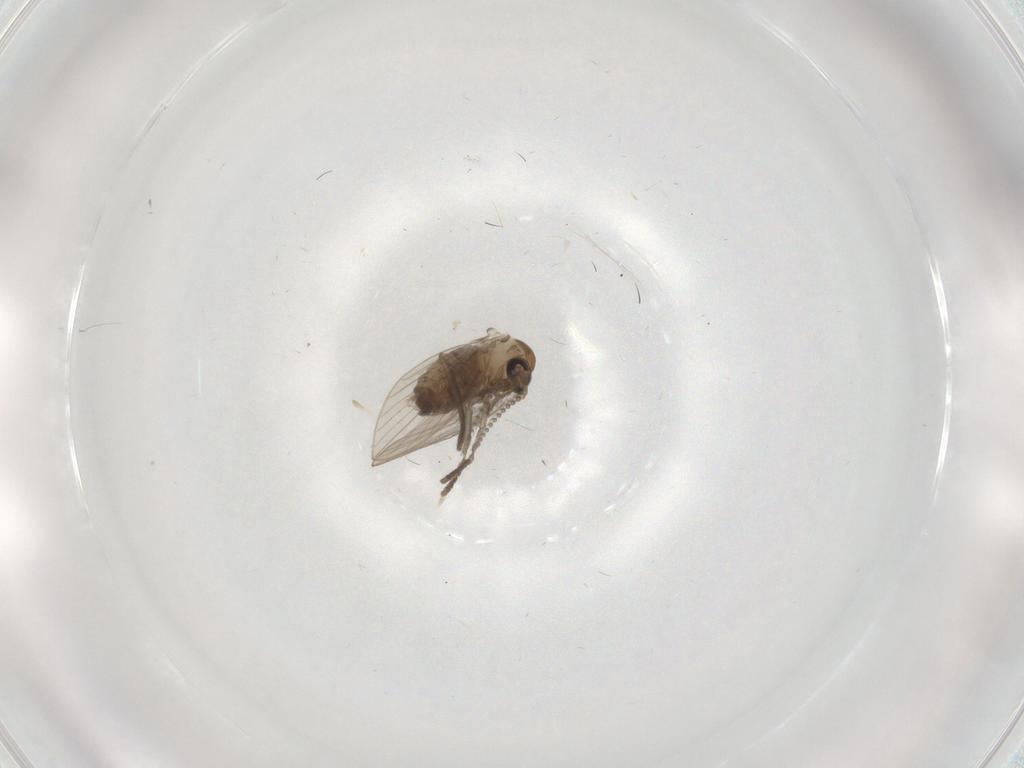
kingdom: Animalia
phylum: Arthropoda
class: Insecta
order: Diptera
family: Psychodidae
